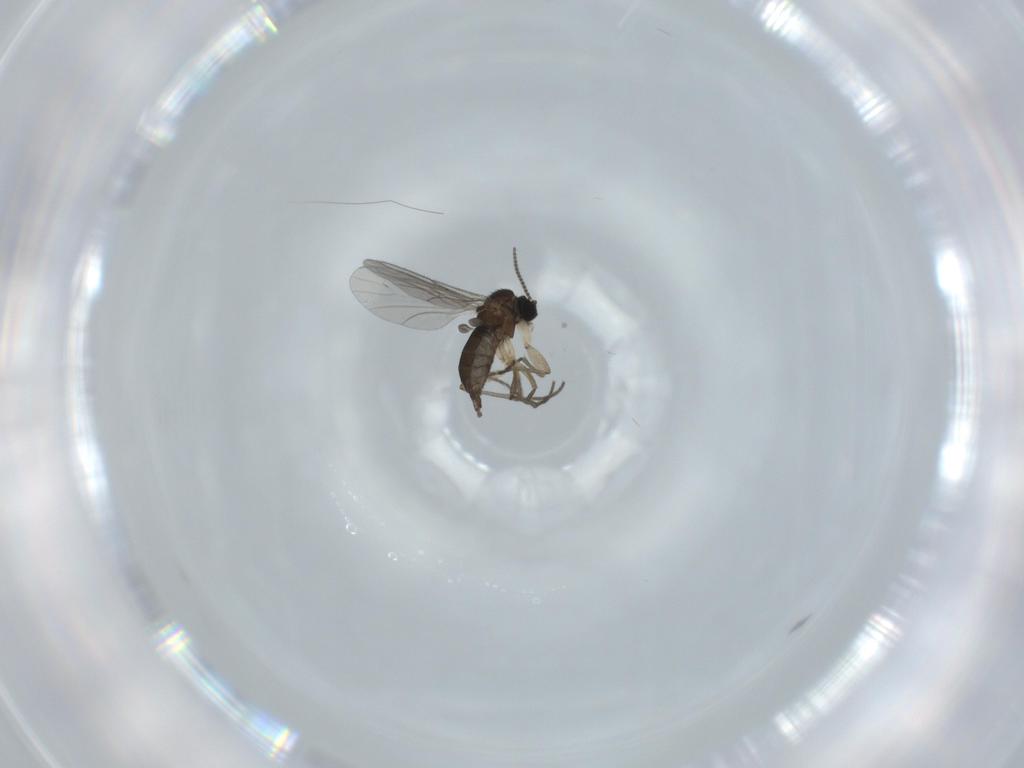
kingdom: Animalia
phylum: Arthropoda
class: Insecta
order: Diptera
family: Sciaridae
